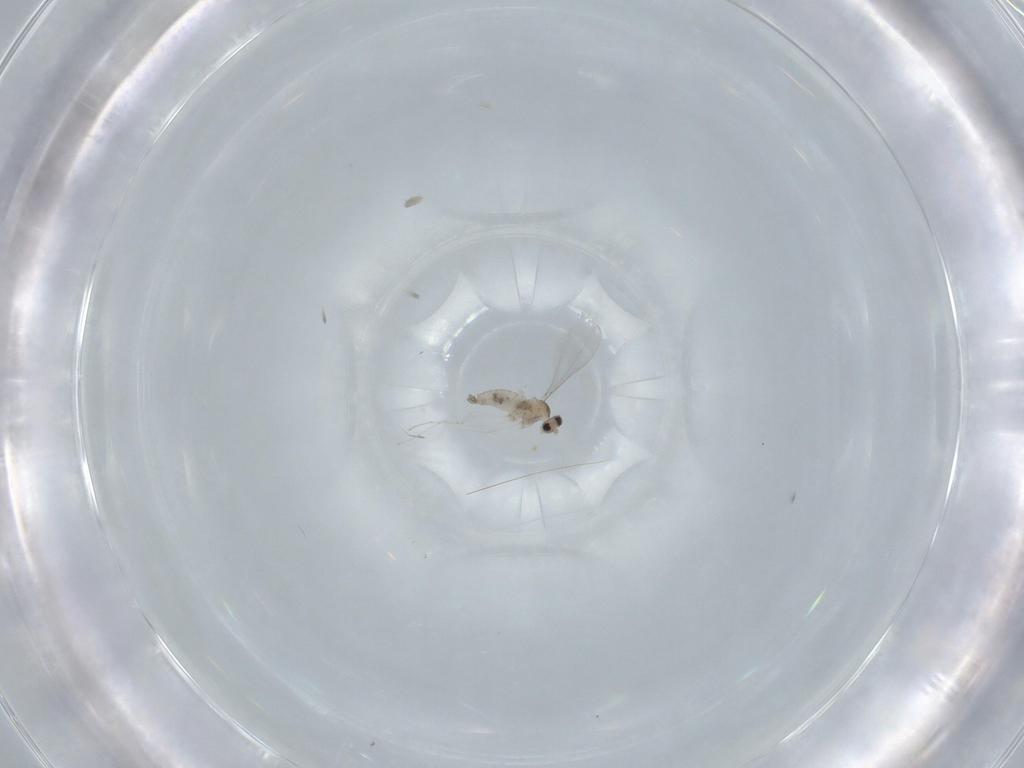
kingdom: Animalia
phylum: Arthropoda
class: Insecta
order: Diptera
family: Cecidomyiidae
